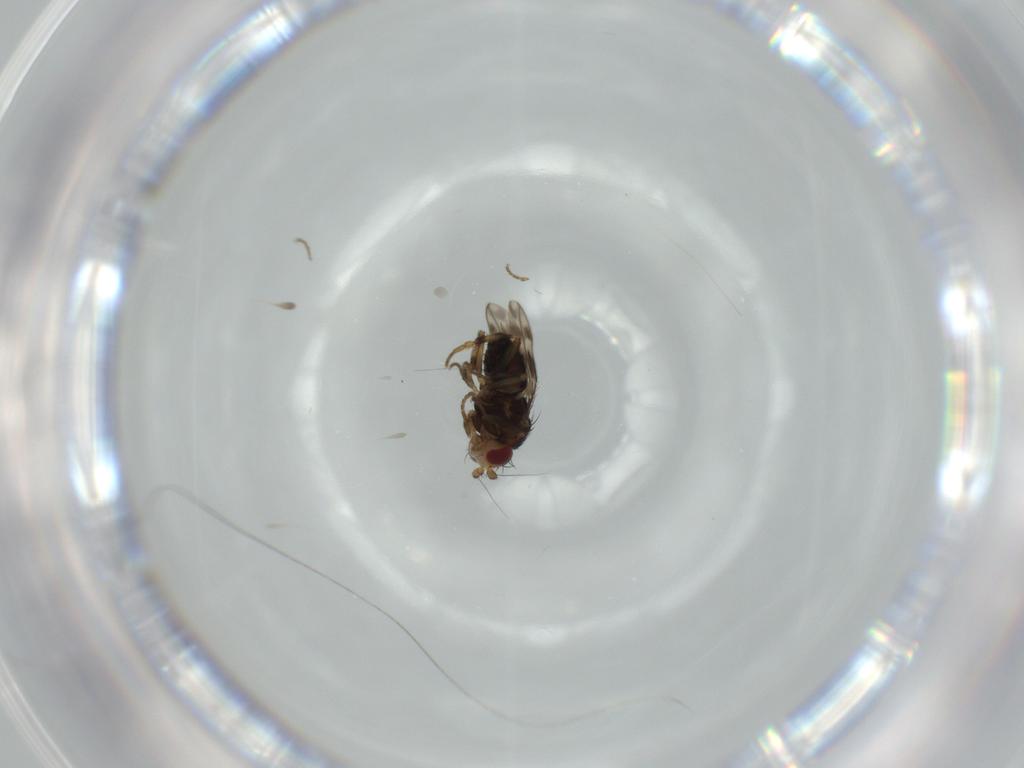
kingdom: Animalia
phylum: Arthropoda
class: Insecta
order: Diptera
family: Sphaeroceridae
